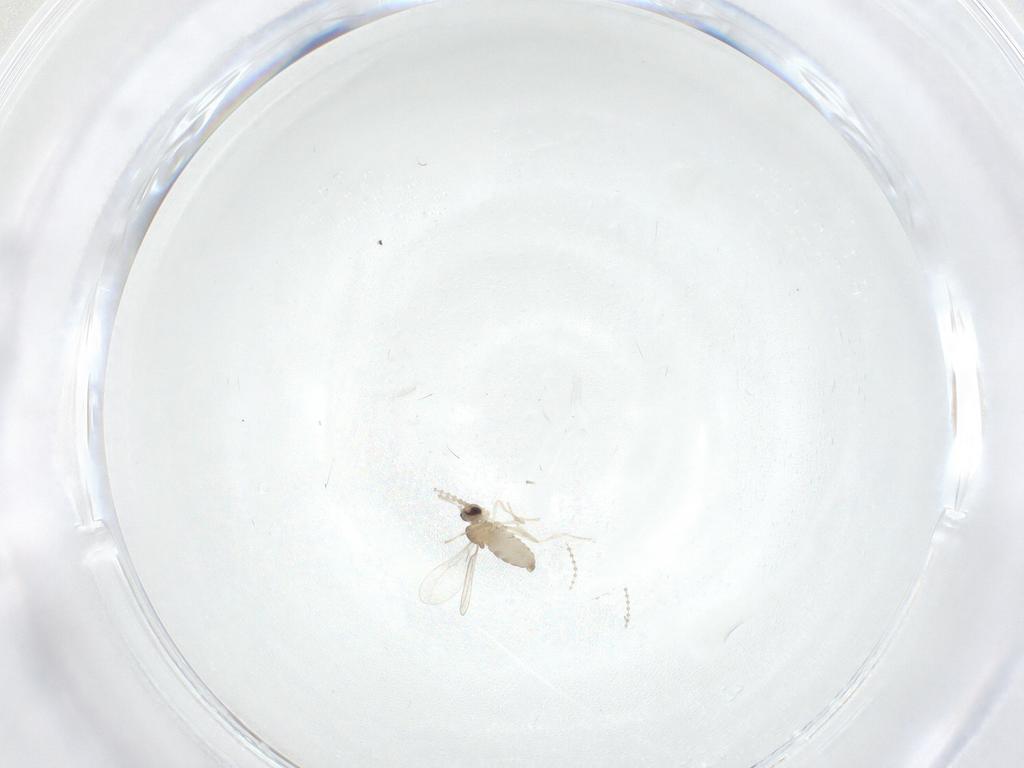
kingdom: Animalia
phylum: Arthropoda
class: Insecta
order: Diptera
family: Cecidomyiidae
